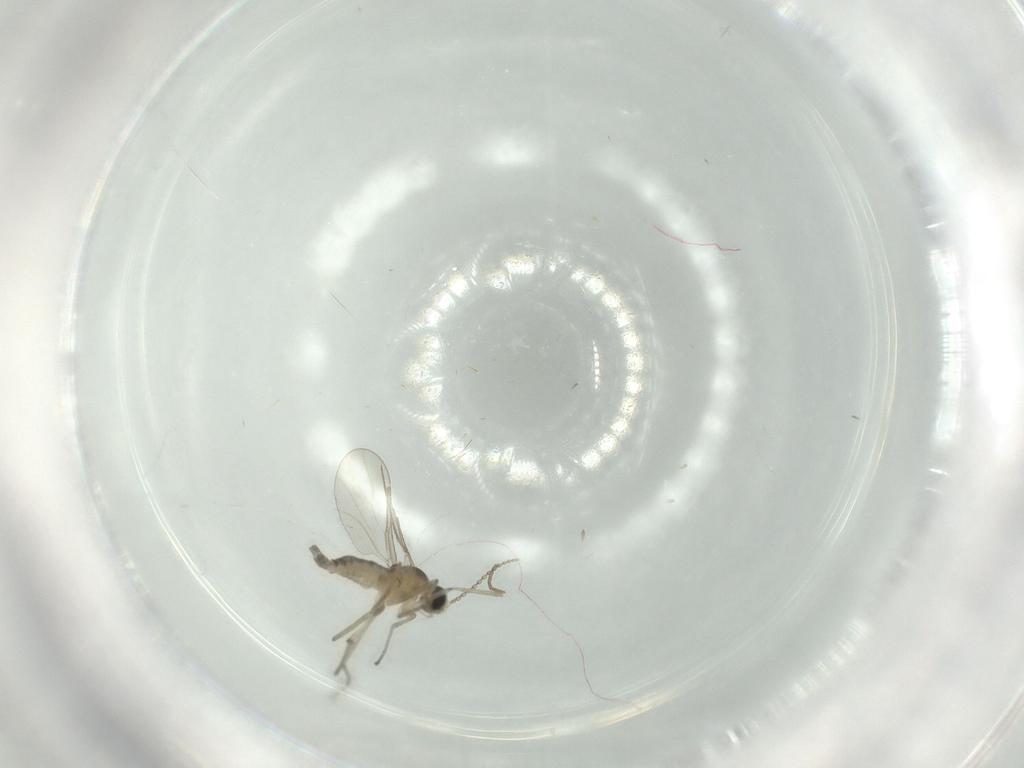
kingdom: Animalia
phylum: Arthropoda
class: Insecta
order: Diptera
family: Cecidomyiidae
